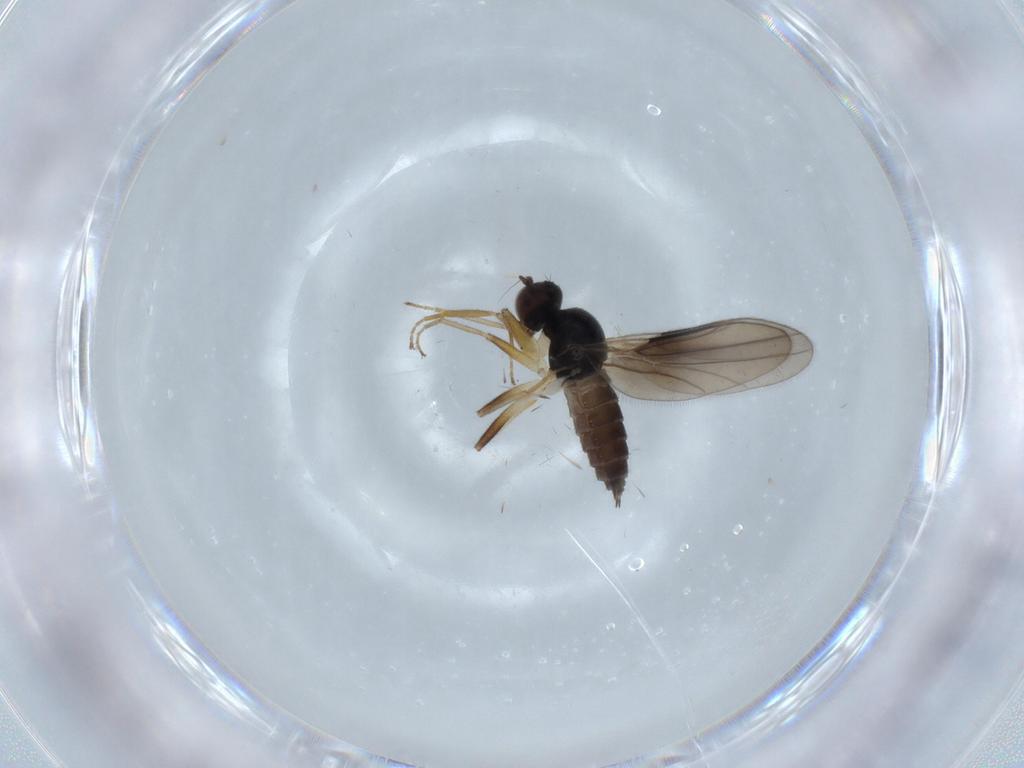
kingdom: Animalia
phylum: Arthropoda
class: Insecta
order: Diptera
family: Hybotidae
